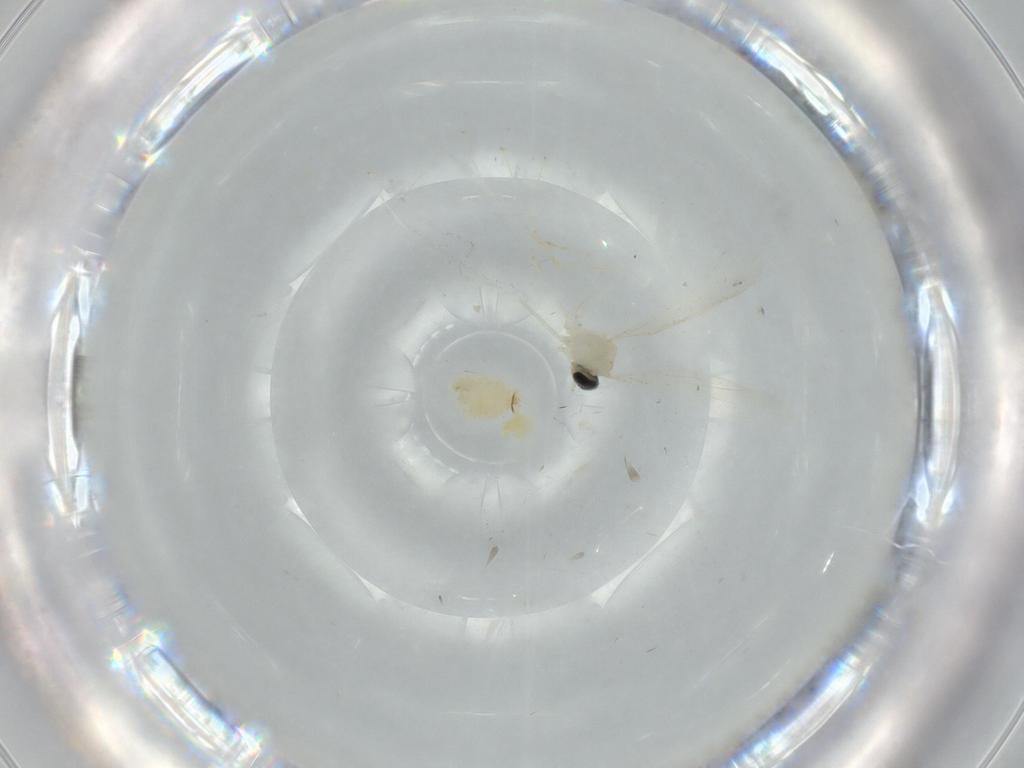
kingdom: Animalia
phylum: Arthropoda
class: Insecta
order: Diptera
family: Cecidomyiidae
